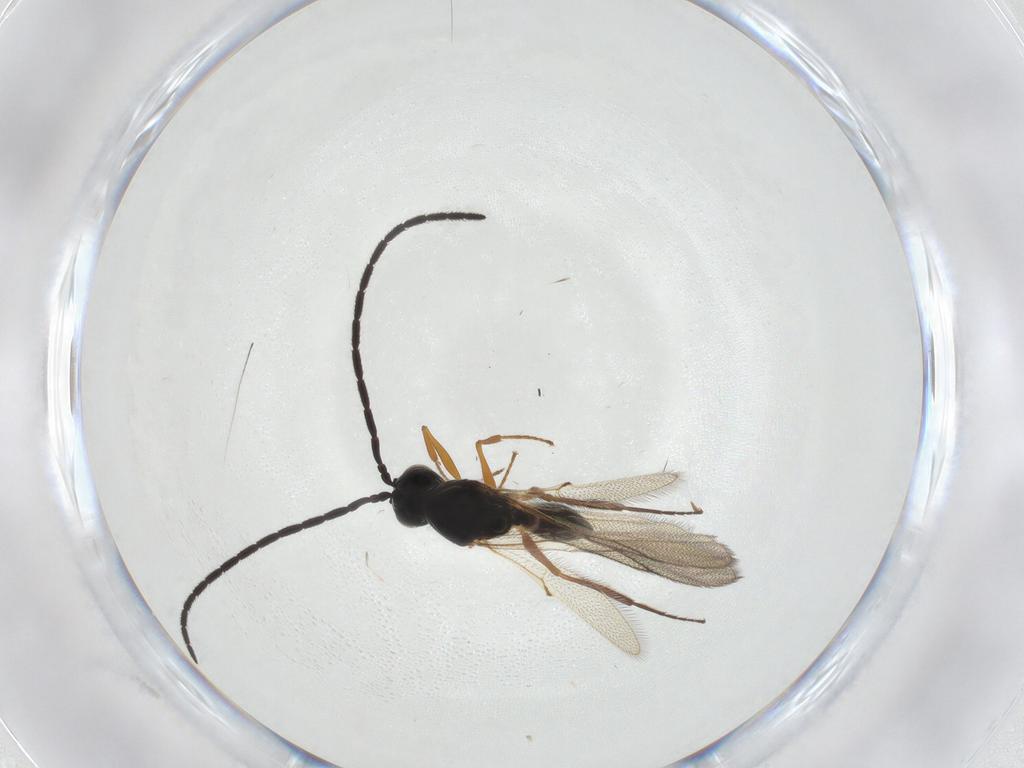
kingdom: Animalia
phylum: Arthropoda
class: Insecta
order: Hymenoptera
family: Figitidae
